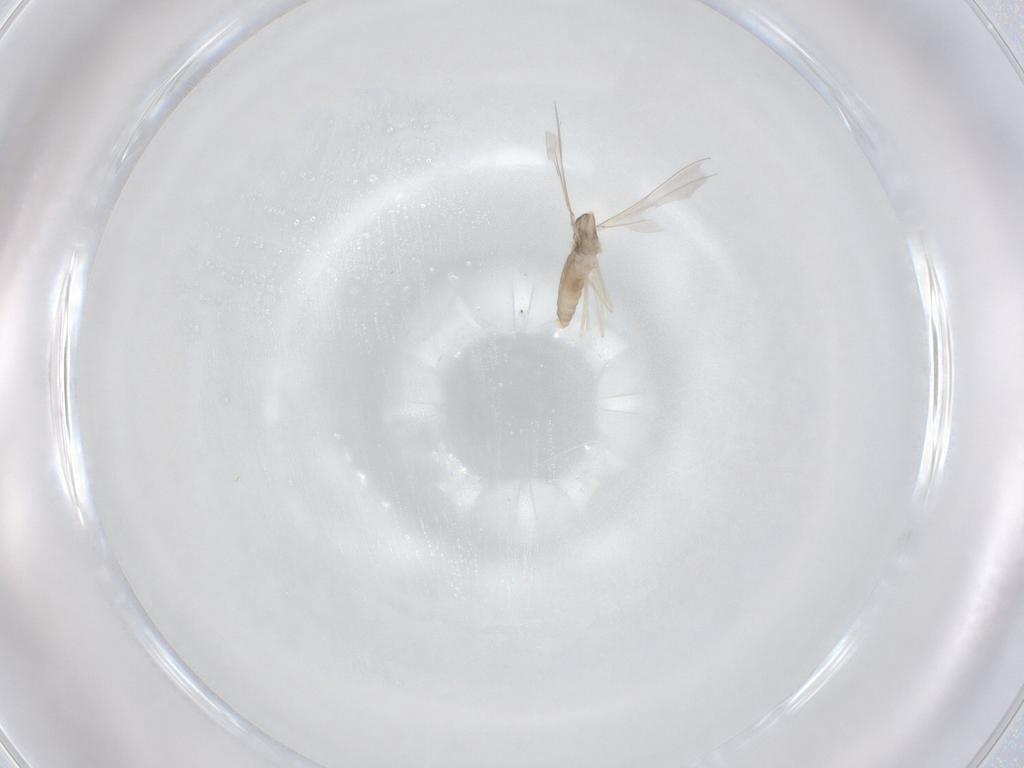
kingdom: Animalia
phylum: Arthropoda
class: Insecta
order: Diptera
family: Cecidomyiidae
